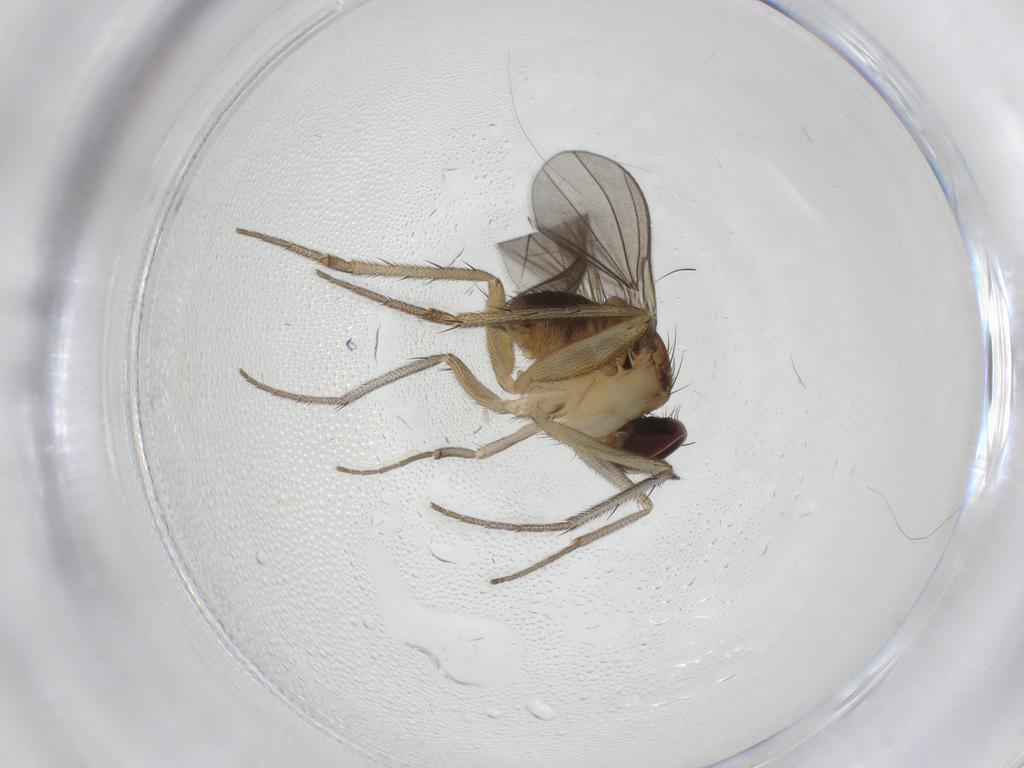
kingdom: Animalia
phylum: Arthropoda
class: Insecta
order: Diptera
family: Dolichopodidae
